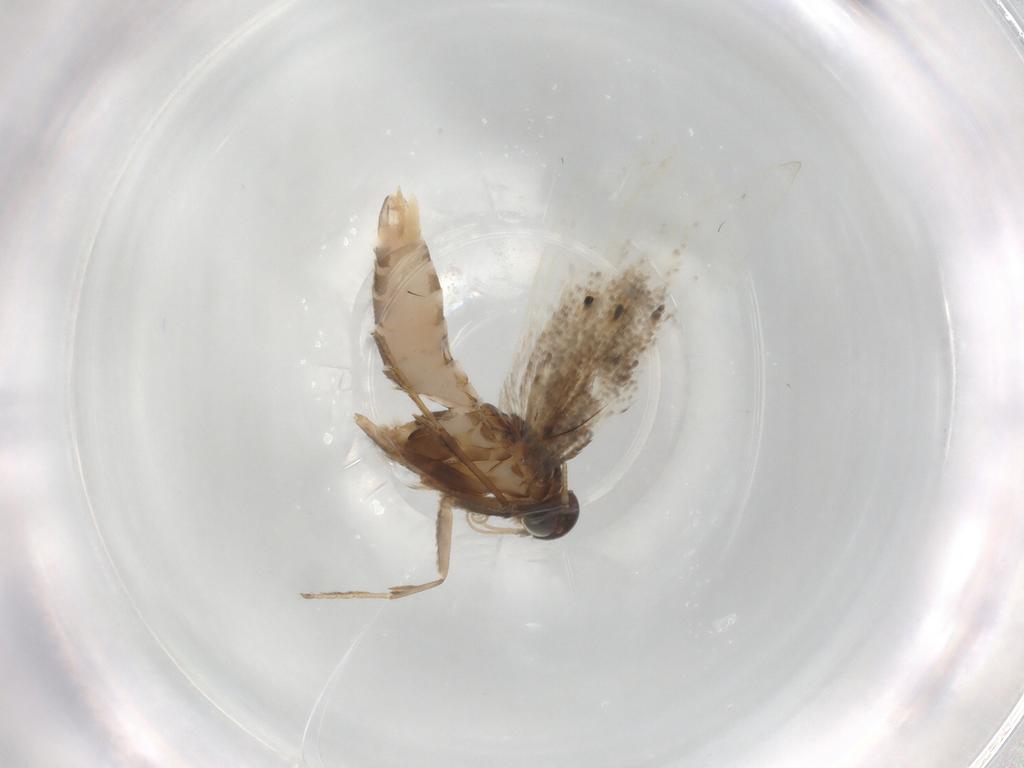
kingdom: Animalia
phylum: Arthropoda
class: Insecta
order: Lepidoptera
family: Gelechiidae
